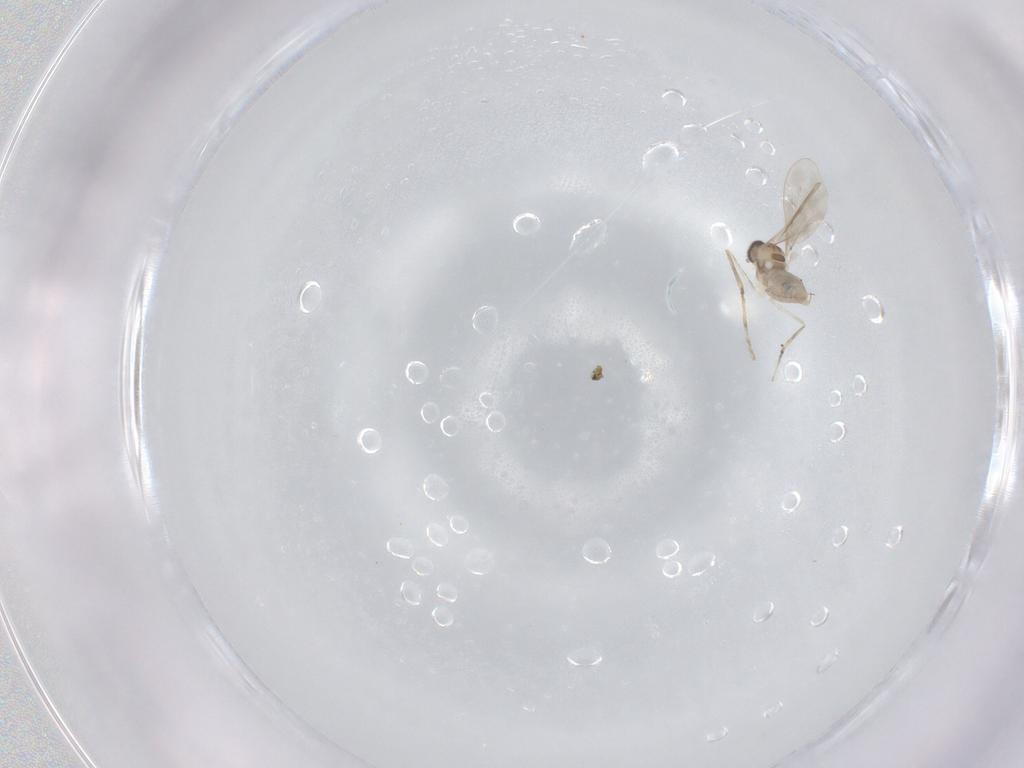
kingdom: Animalia
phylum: Arthropoda
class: Insecta
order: Diptera
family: Cecidomyiidae
